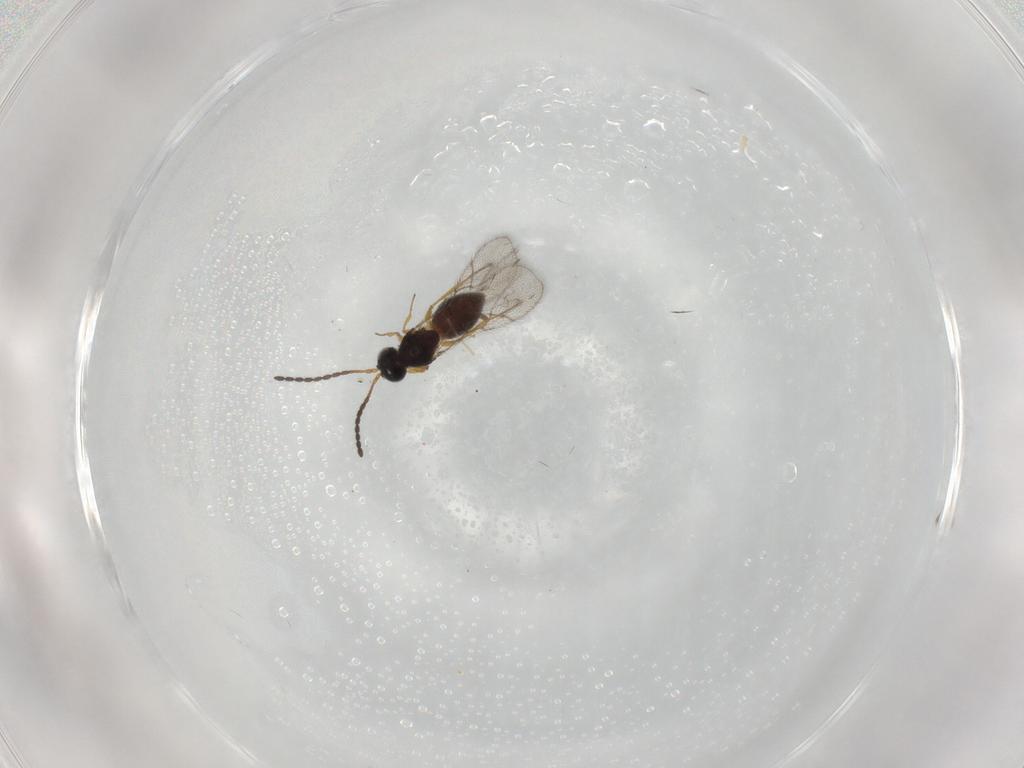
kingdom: Animalia
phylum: Arthropoda
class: Insecta
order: Hymenoptera
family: Figitidae
